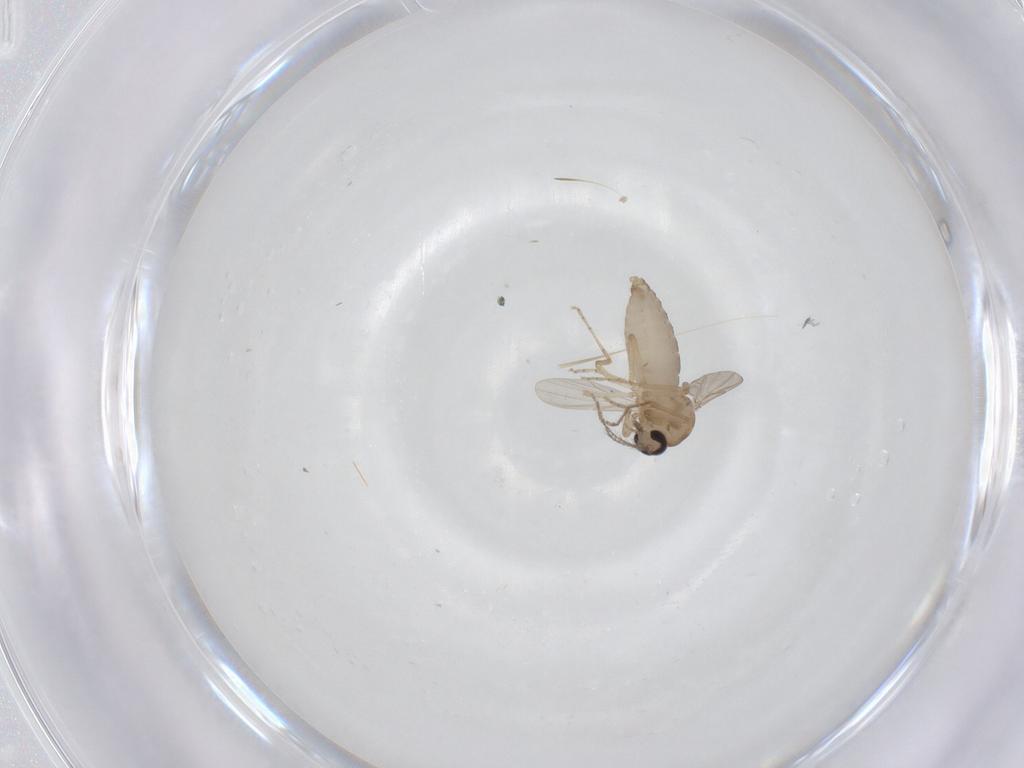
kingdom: Animalia
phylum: Arthropoda
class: Insecta
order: Diptera
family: Ceratopogonidae
